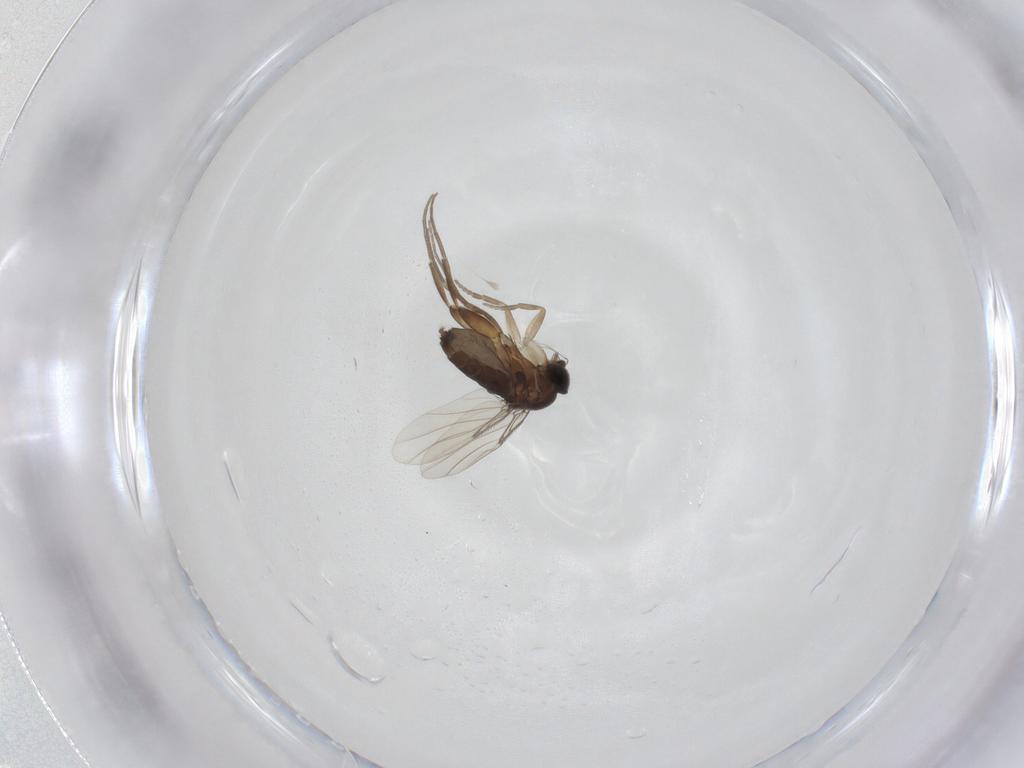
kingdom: Animalia
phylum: Arthropoda
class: Insecta
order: Diptera
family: Phoridae
